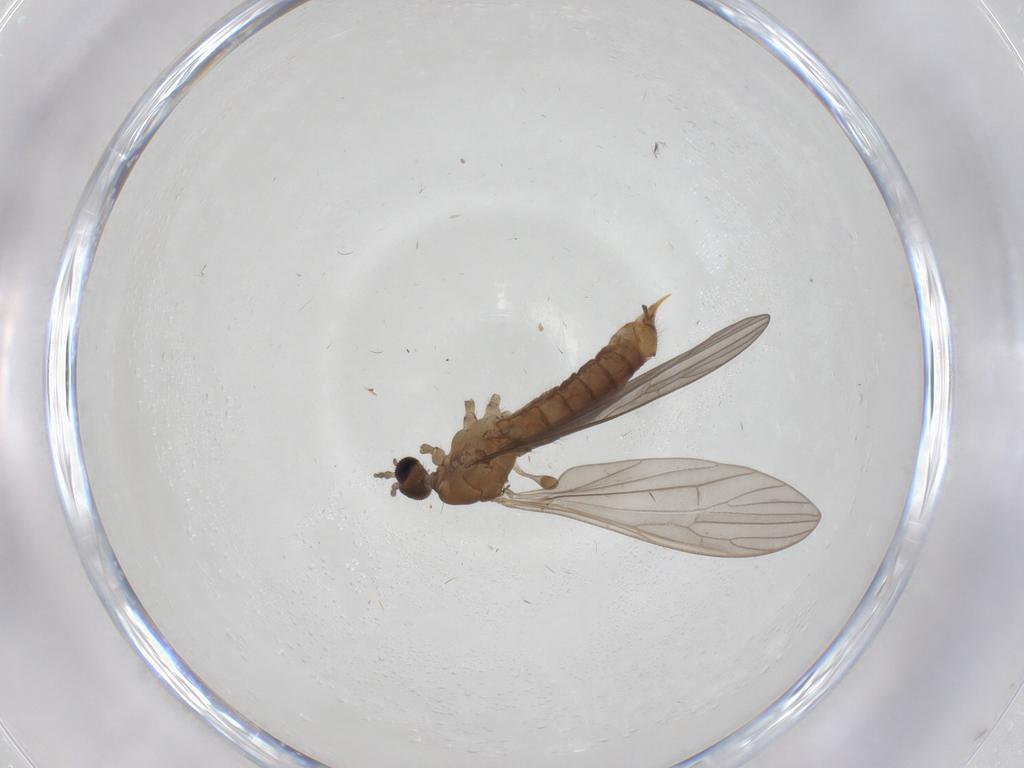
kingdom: Animalia
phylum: Arthropoda
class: Insecta
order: Diptera
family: Limoniidae
